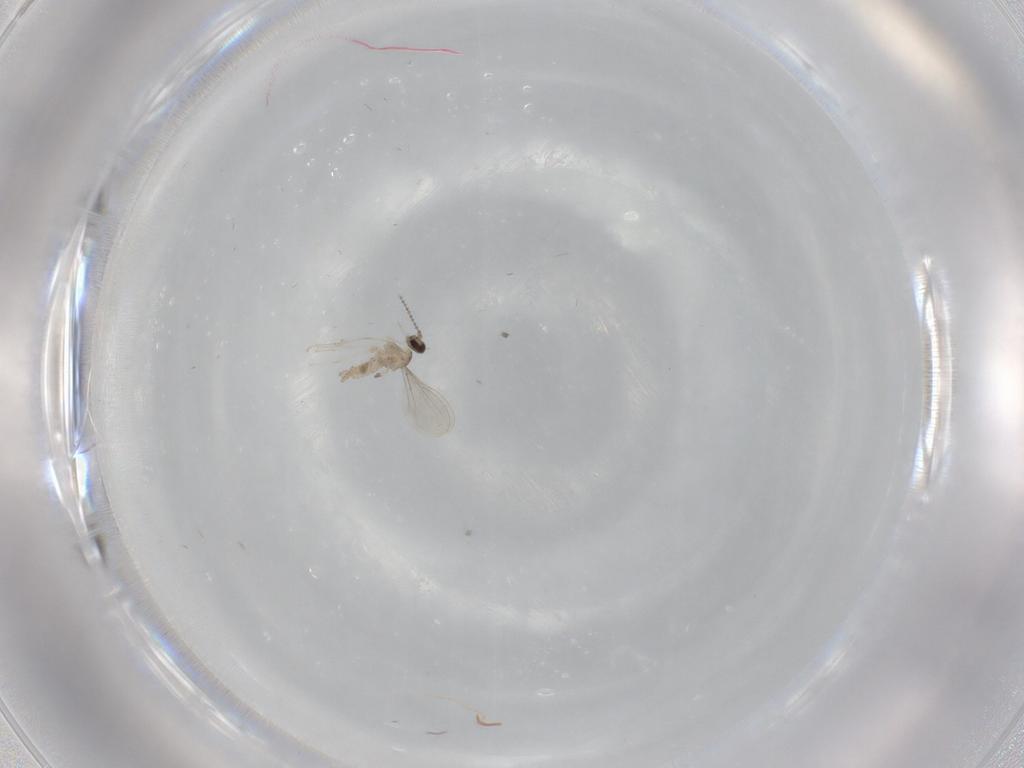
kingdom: Animalia
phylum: Arthropoda
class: Insecta
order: Diptera
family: Cecidomyiidae
